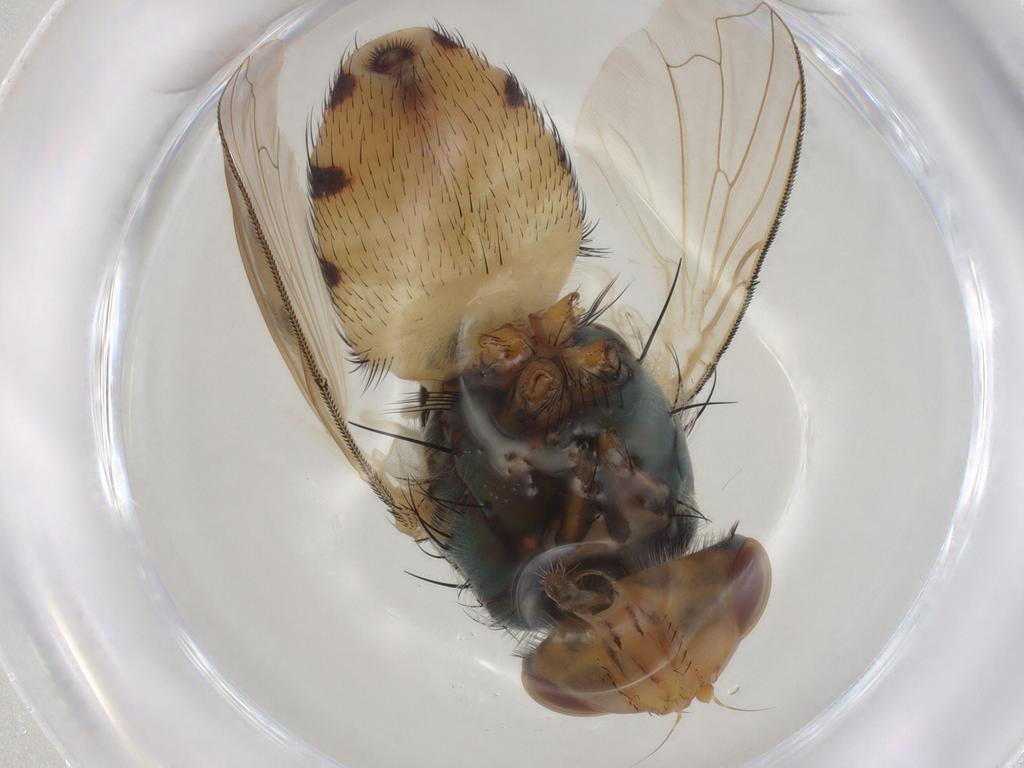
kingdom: Animalia
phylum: Arthropoda
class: Insecta
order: Diptera
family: Calliphoridae
